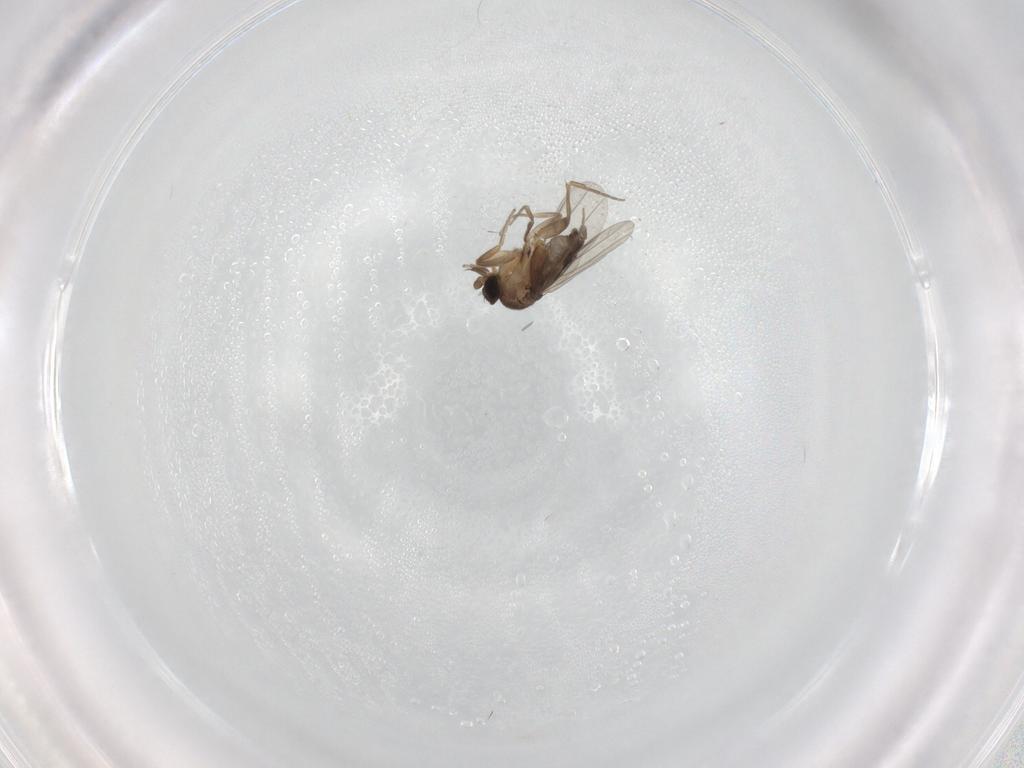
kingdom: Animalia
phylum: Arthropoda
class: Insecta
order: Diptera
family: Phoridae
